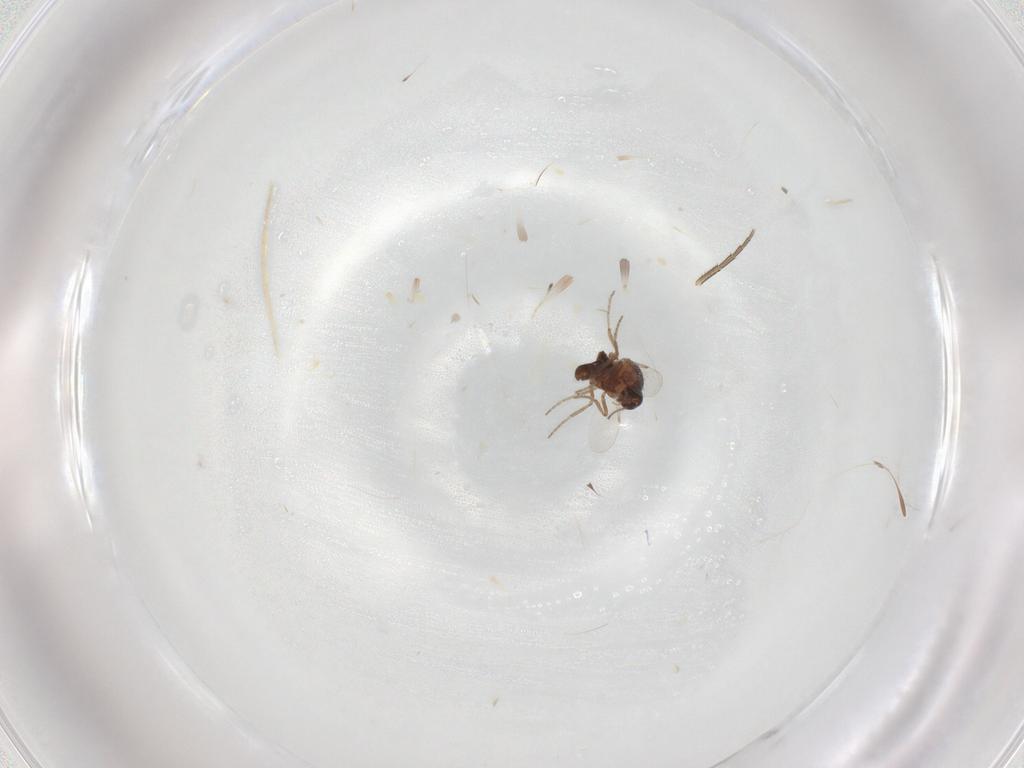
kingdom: Animalia
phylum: Arthropoda
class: Insecta
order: Diptera
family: Ceratopogonidae
